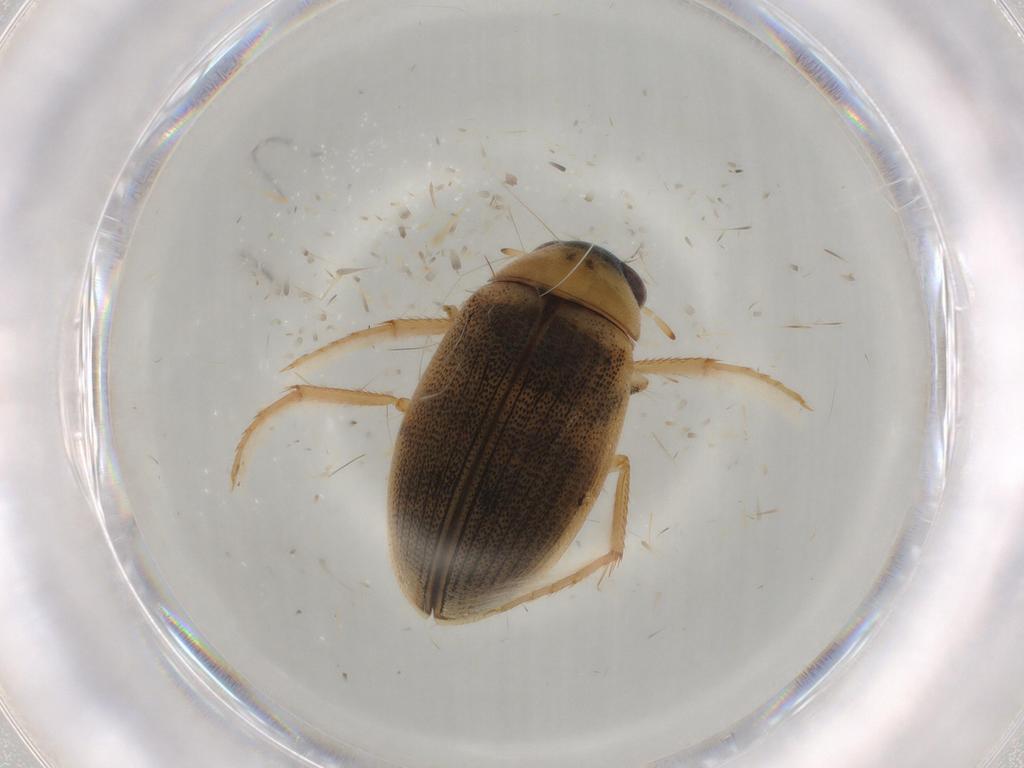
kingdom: Animalia
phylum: Arthropoda
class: Insecta
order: Coleoptera
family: Hydrophilidae
